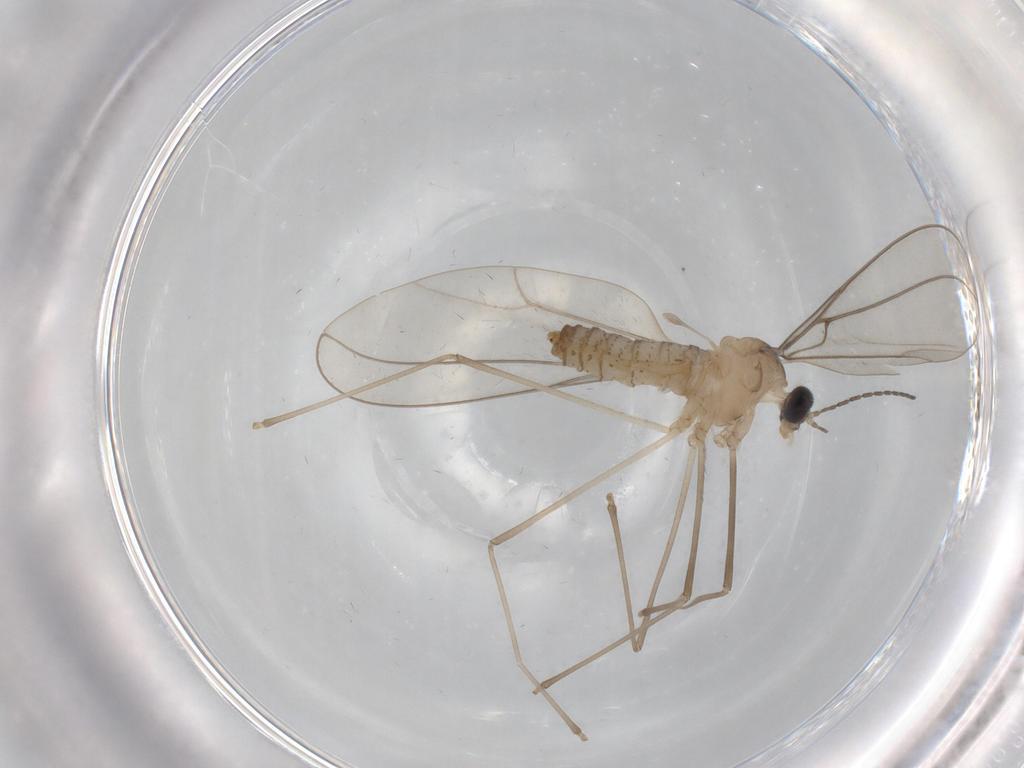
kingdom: Animalia
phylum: Arthropoda
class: Insecta
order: Diptera
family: Cecidomyiidae
